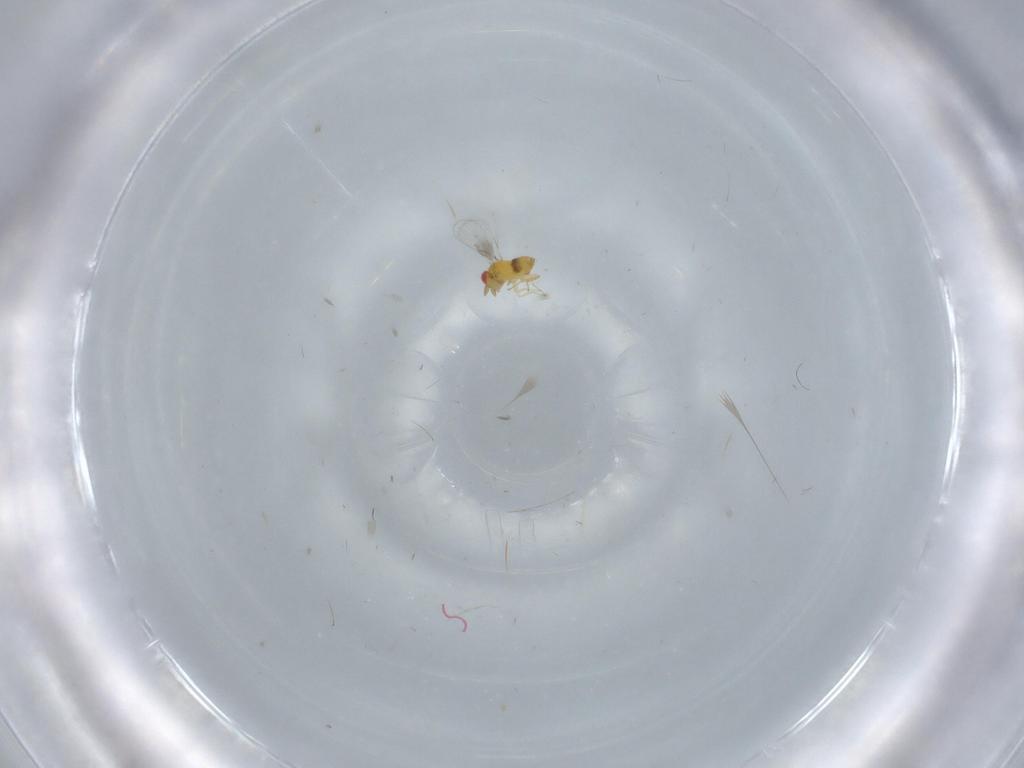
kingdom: Animalia
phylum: Arthropoda
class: Insecta
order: Hymenoptera
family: Trichogrammatidae
